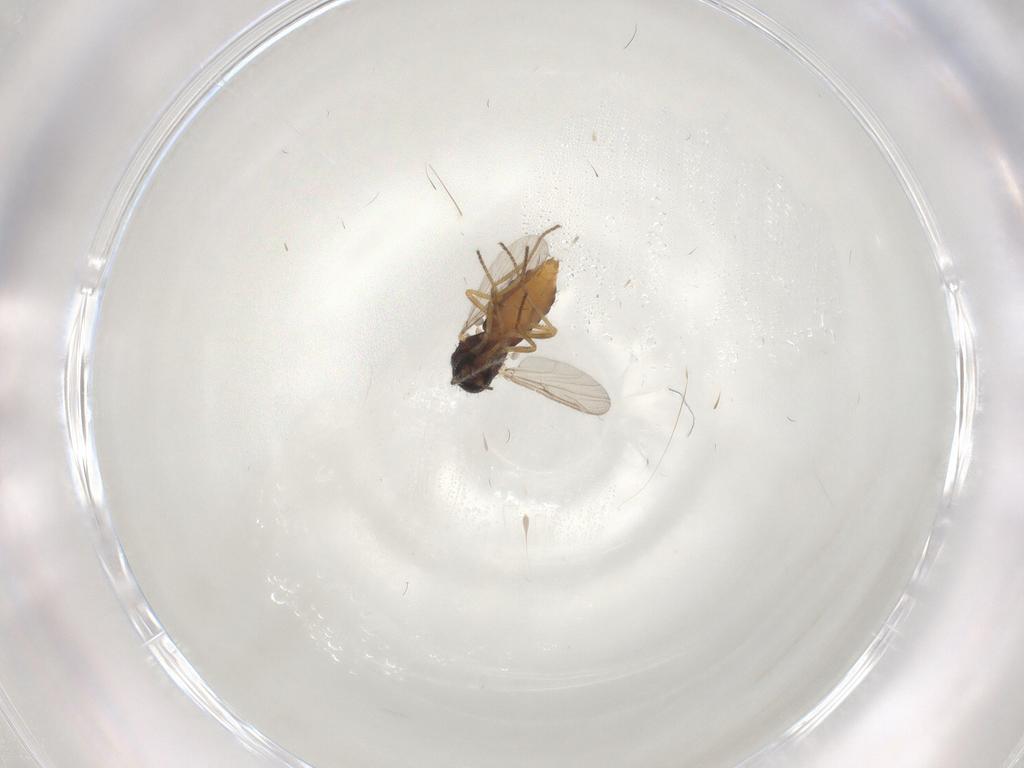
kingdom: Animalia
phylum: Arthropoda
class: Insecta
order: Diptera
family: Ceratopogonidae
